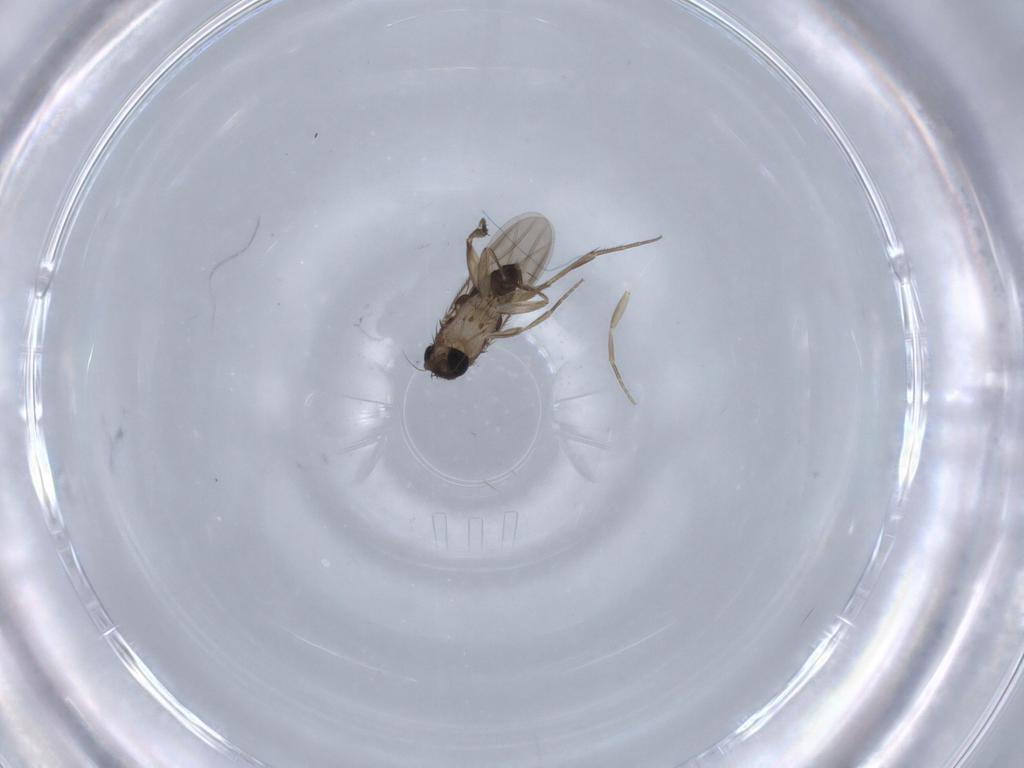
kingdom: Animalia
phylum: Arthropoda
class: Insecta
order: Diptera
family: Phoridae
